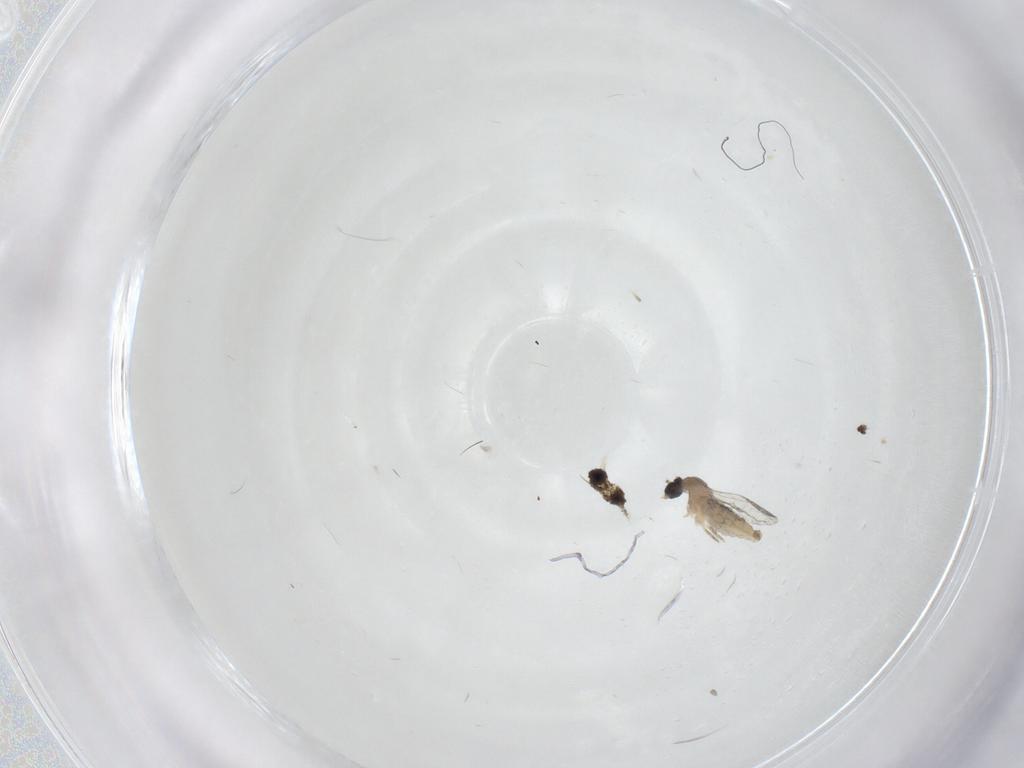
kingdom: Animalia
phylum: Arthropoda
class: Insecta
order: Diptera
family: Cecidomyiidae
